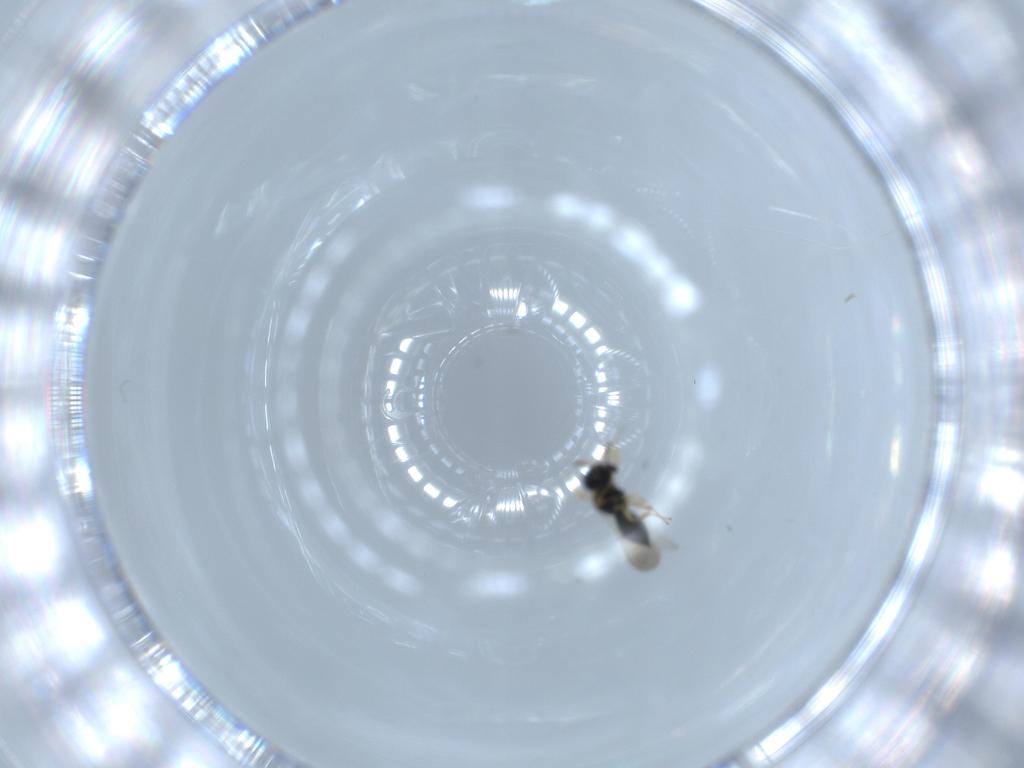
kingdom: Animalia
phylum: Arthropoda
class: Insecta
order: Hymenoptera
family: Scelionidae
